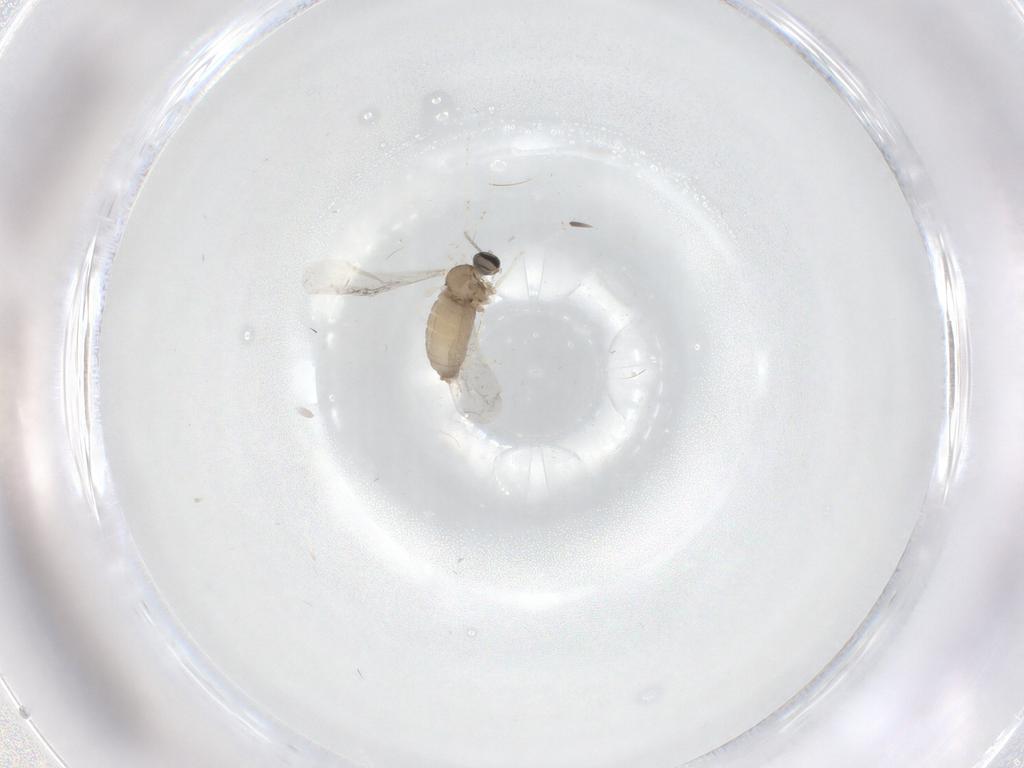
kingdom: Animalia
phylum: Arthropoda
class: Insecta
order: Diptera
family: Cecidomyiidae
